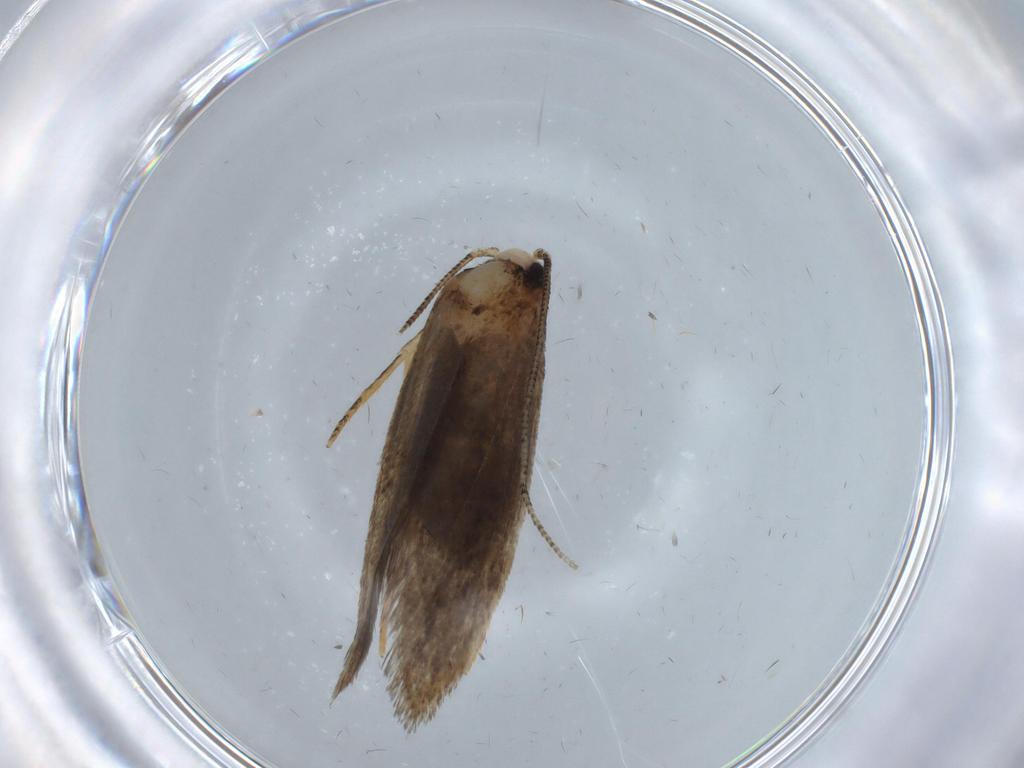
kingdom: Animalia
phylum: Arthropoda
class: Insecta
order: Lepidoptera
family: Tineidae
